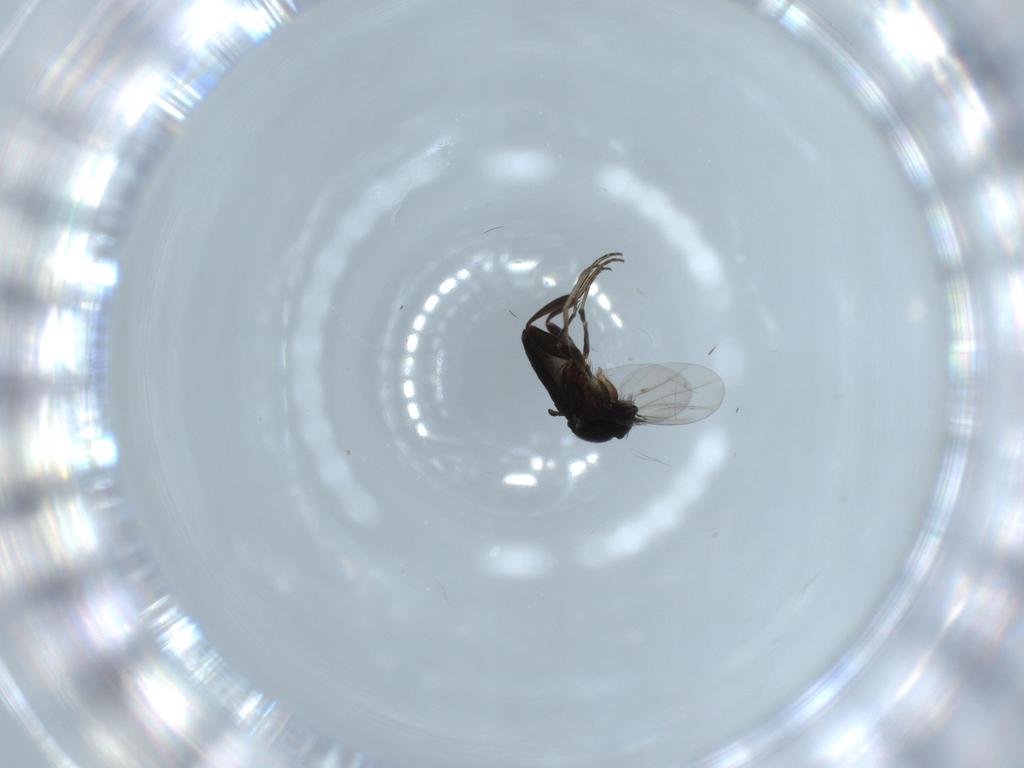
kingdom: Animalia
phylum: Arthropoda
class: Insecta
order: Diptera
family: Phoridae
